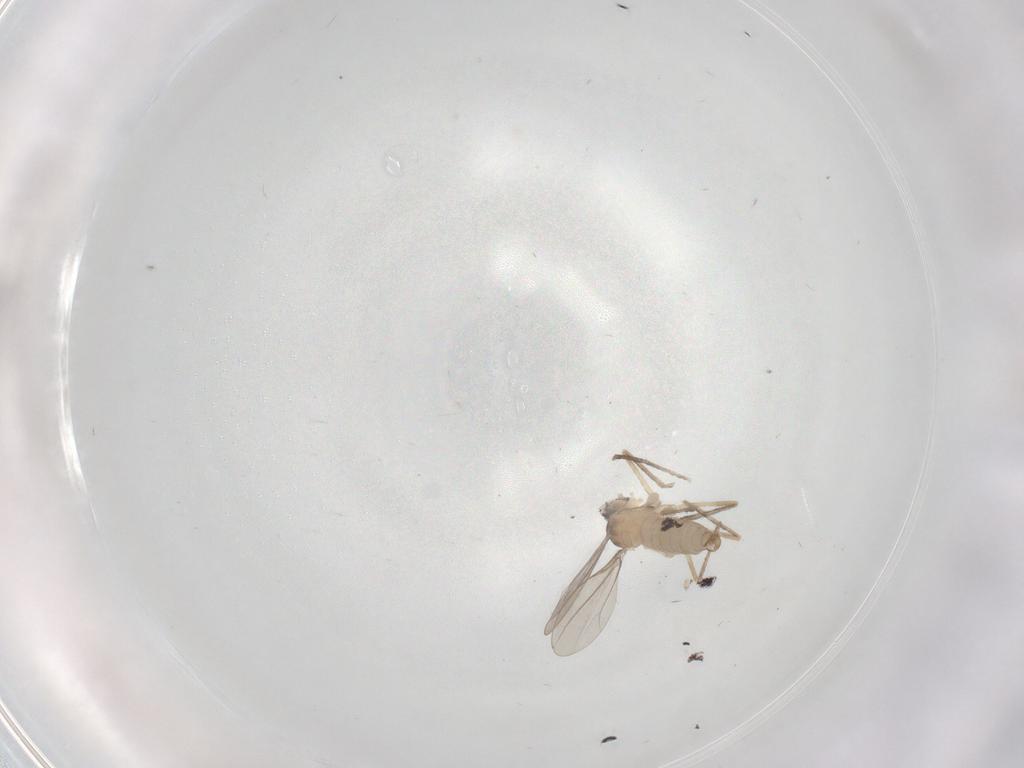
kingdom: Animalia
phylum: Arthropoda
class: Insecta
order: Diptera
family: Cecidomyiidae
